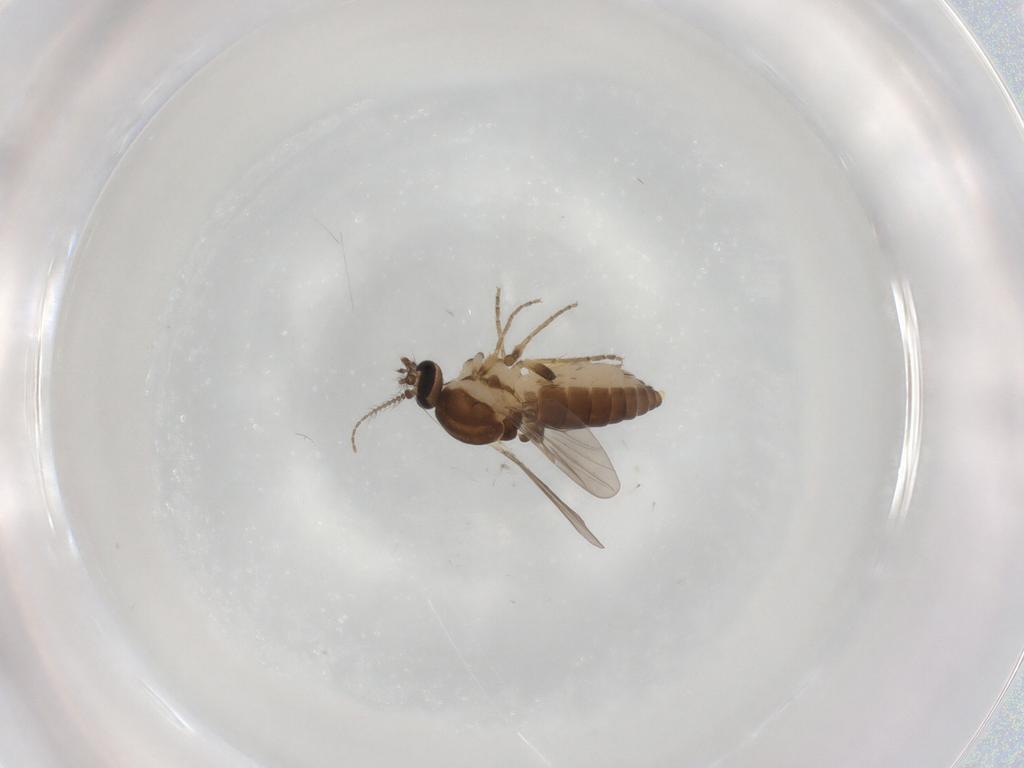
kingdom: Animalia
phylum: Arthropoda
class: Insecta
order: Diptera
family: Ceratopogonidae
